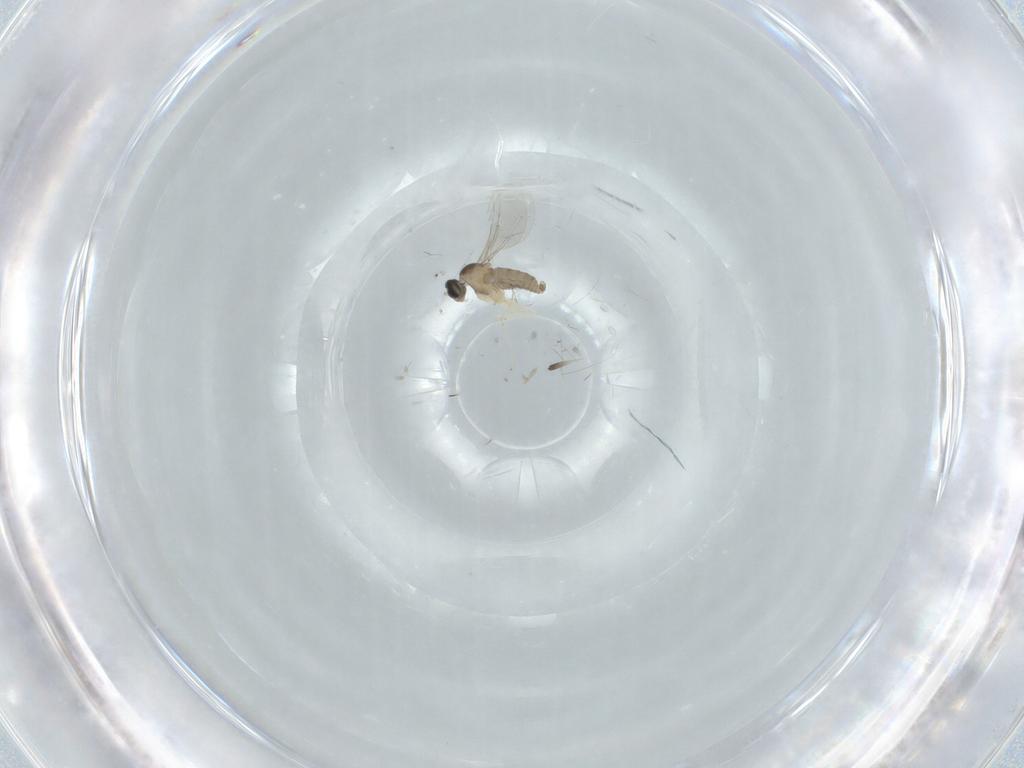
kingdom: Animalia
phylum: Arthropoda
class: Insecta
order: Diptera
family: Cecidomyiidae
